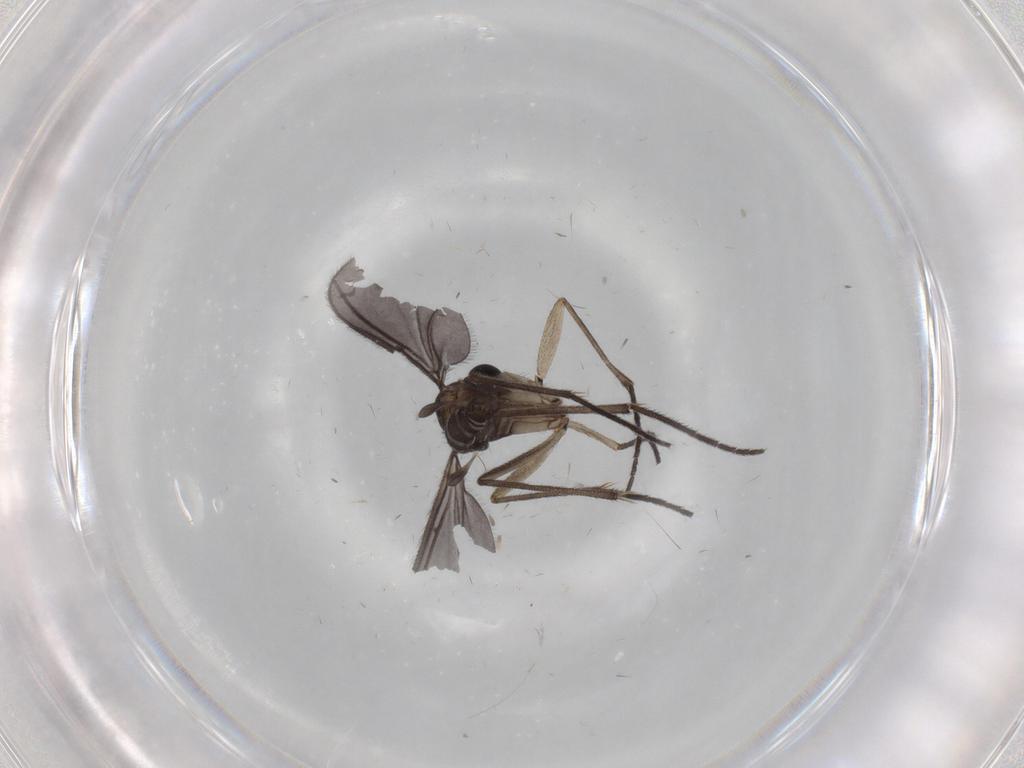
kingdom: Animalia
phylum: Arthropoda
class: Insecta
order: Diptera
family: Sciaridae
